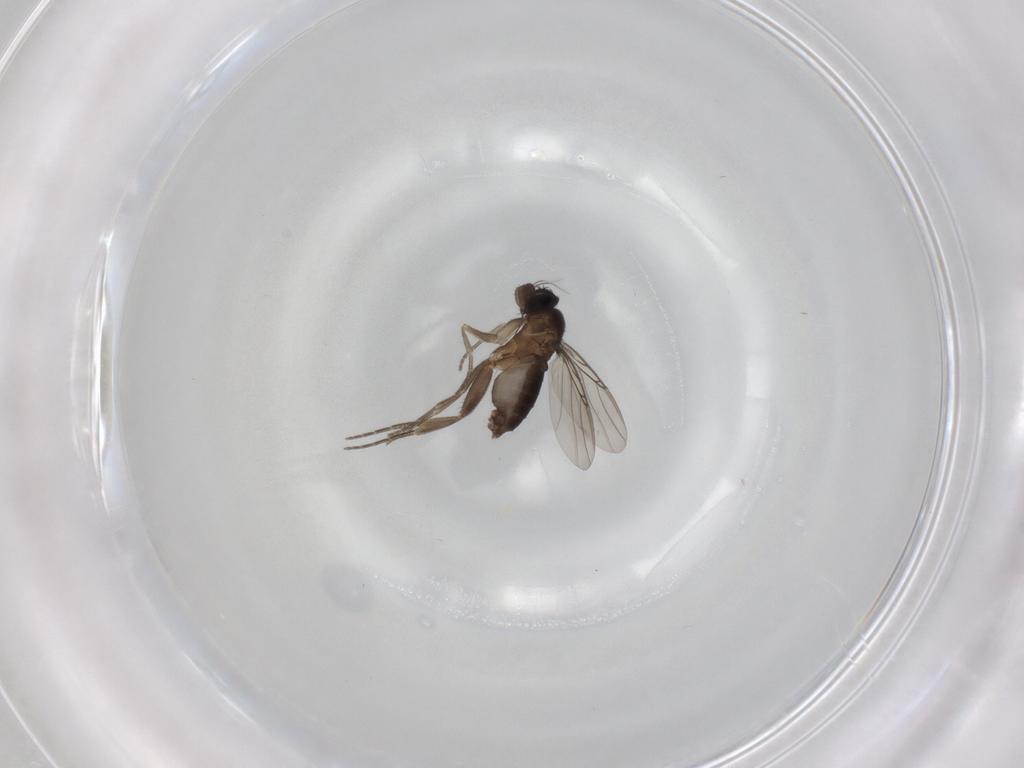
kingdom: Animalia
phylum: Arthropoda
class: Insecta
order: Diptera
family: Phoridae
